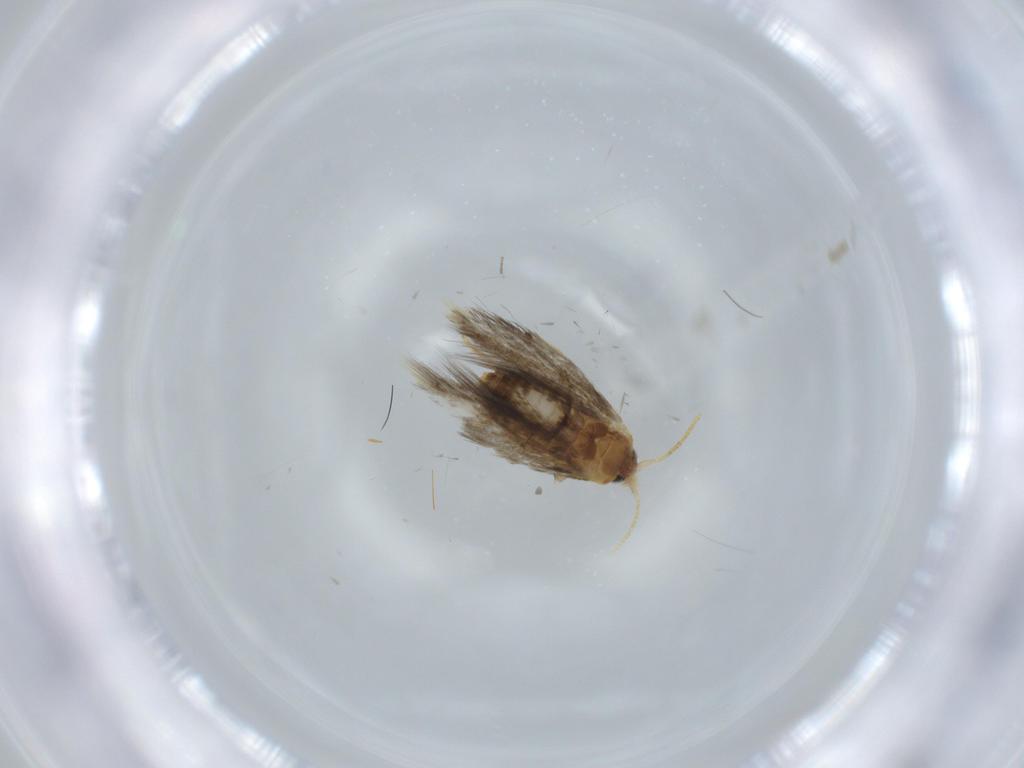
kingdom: Animalia
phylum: Arthropoda
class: Insecta
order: Lepidoptera
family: Copromorphidae
